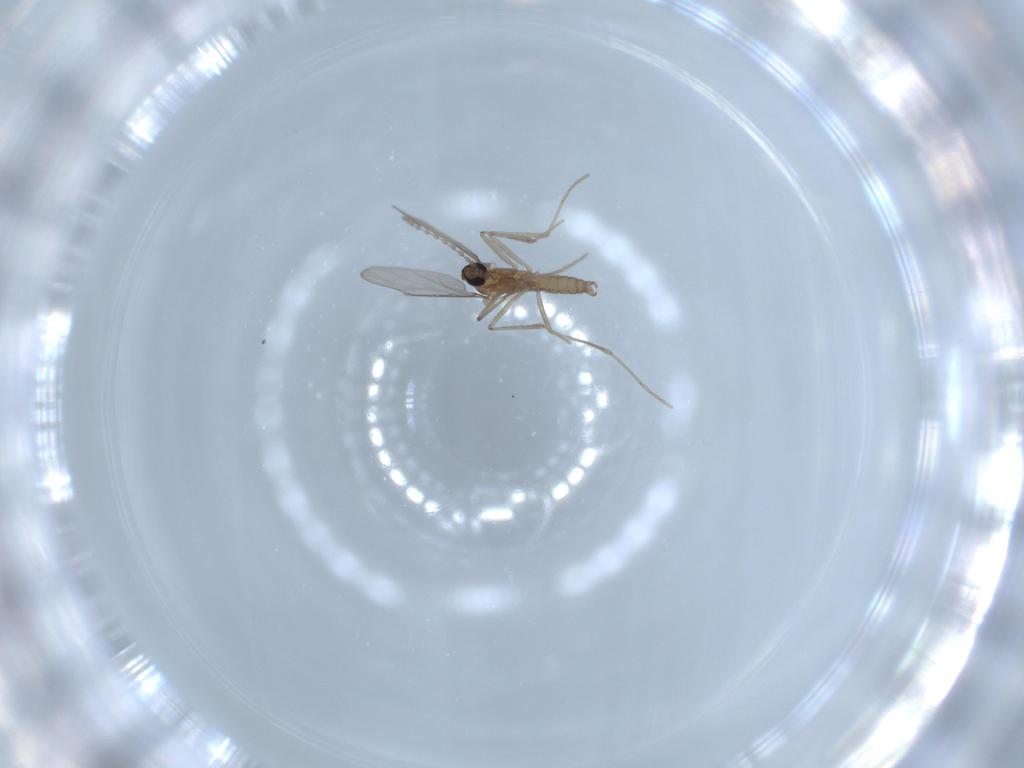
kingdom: Animalia
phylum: Arthropoda
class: Insecta
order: Diptera
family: Cecidomyiidae
